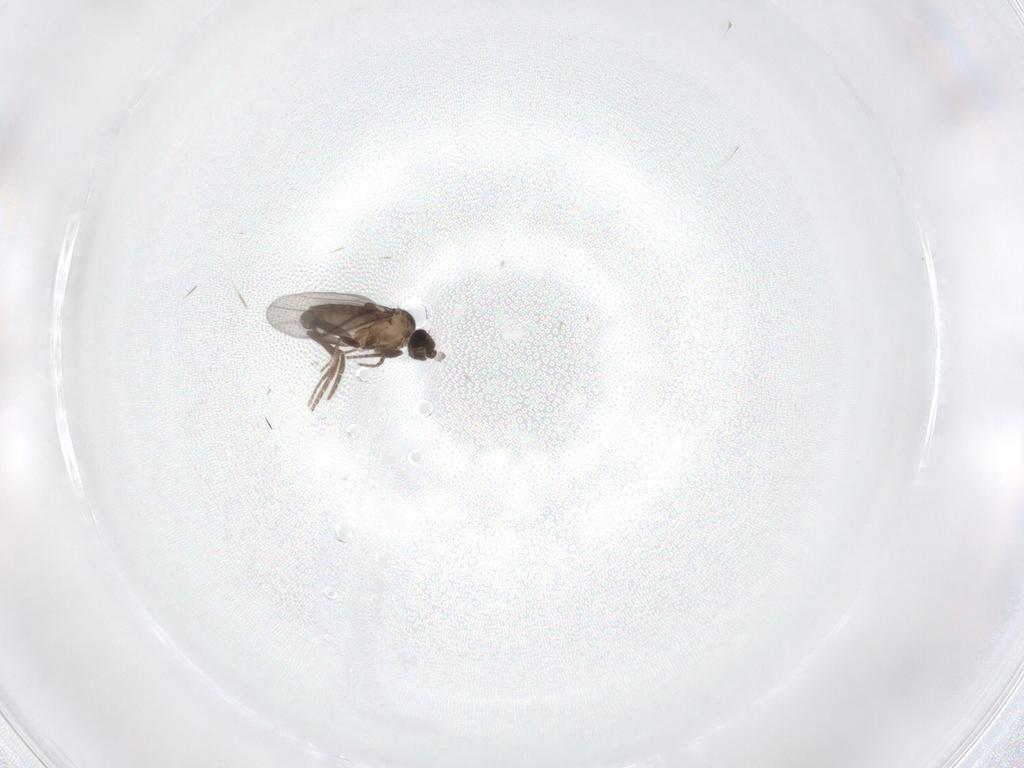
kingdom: Animalia
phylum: Arthropoda
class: Insecta
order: Diptera
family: Phoridae
